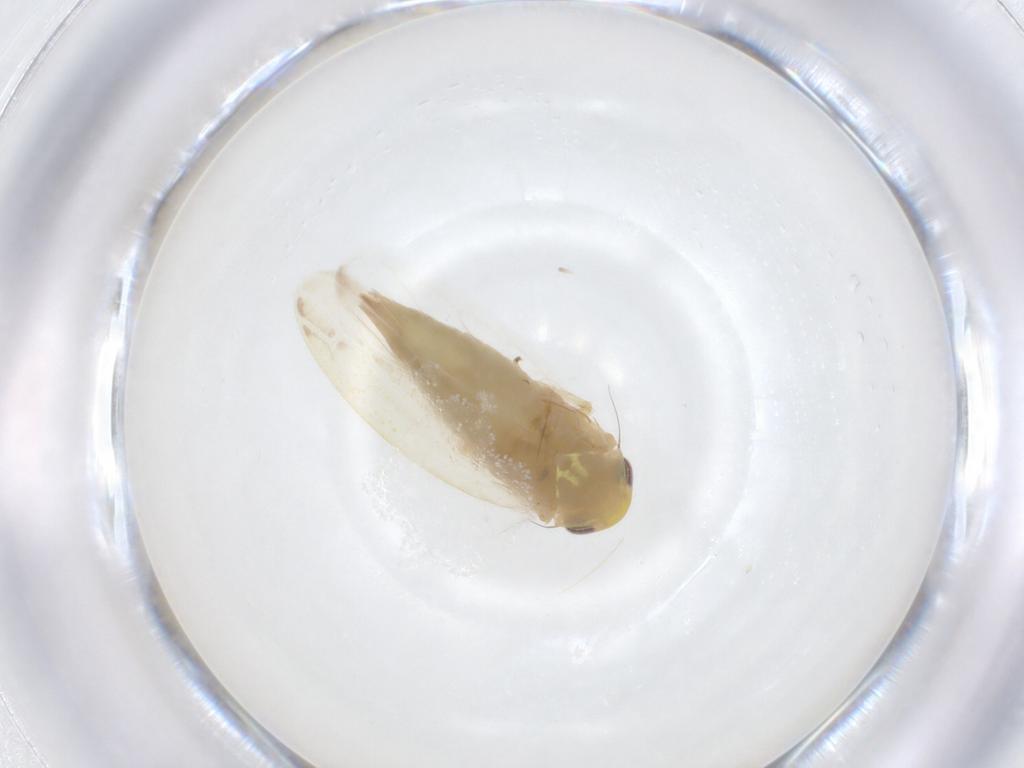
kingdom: Animalia
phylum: Arthropoda
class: Insecta
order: Hemiptera
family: Cicadellidae
